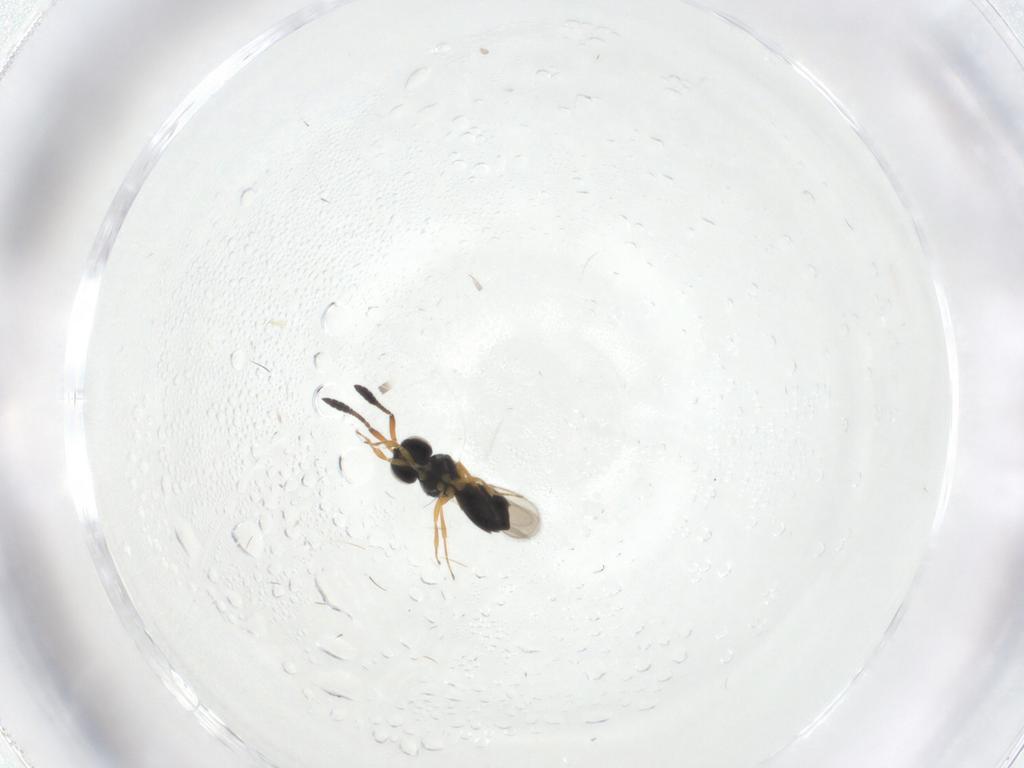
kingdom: Animalia
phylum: Arthropoda
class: Insecta
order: Hymenoptera
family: Scelionidae
